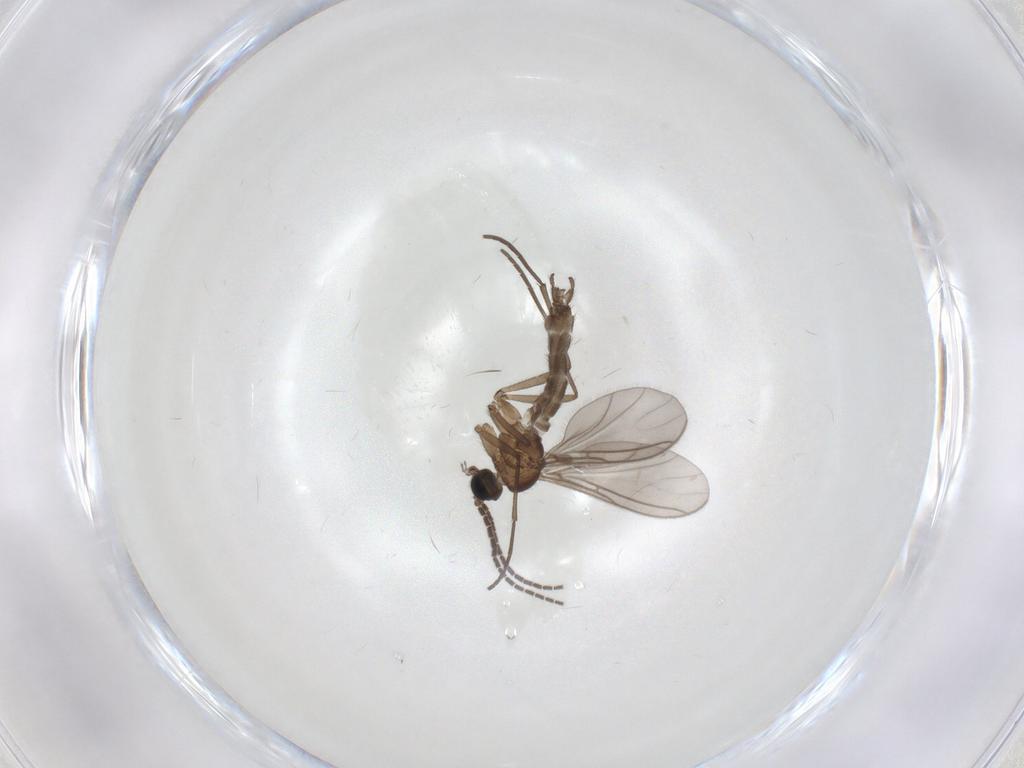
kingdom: Animalia
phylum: Arthropoda
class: Insecta
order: Diptera
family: Sciaridae
